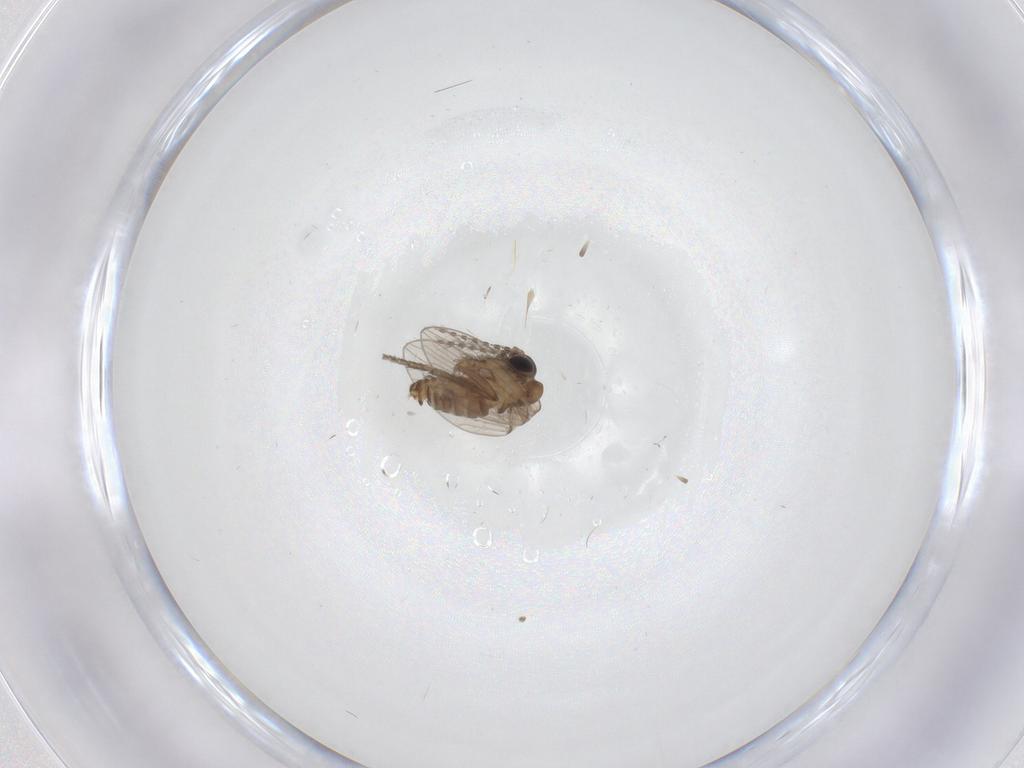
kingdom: Animalia
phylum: Arthropoda
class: Insecta
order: Diptera
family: Psychodidae
